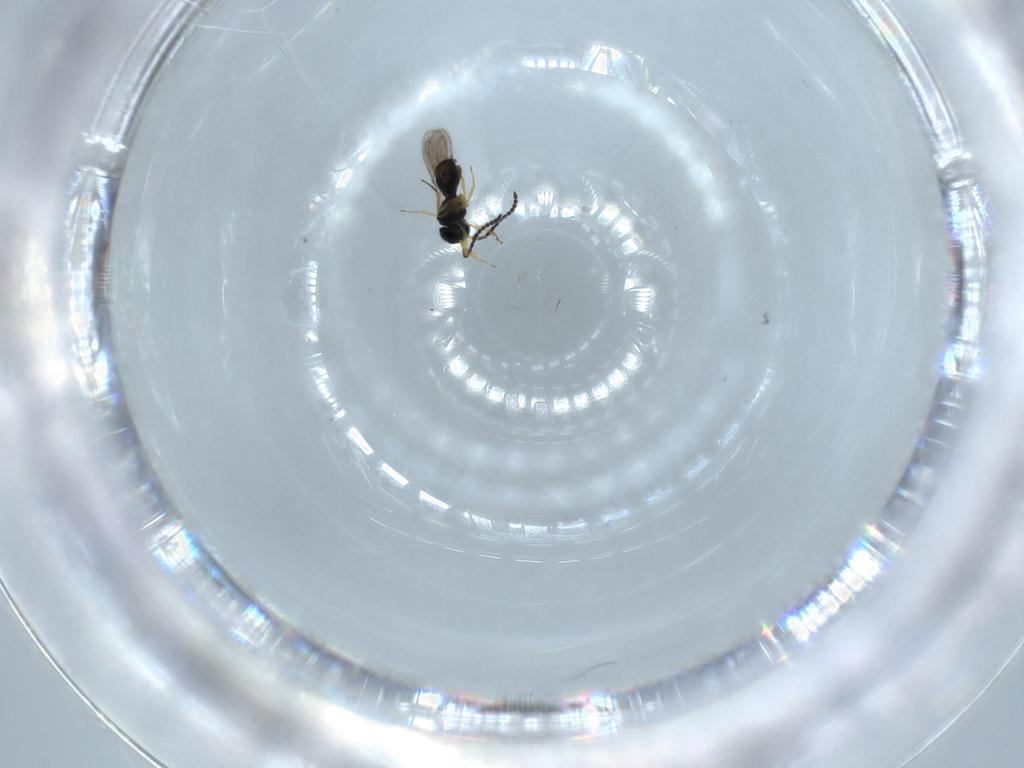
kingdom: Animalia
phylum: Arthropoda
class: Insecta
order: Hymenoptera
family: Scelionidae
